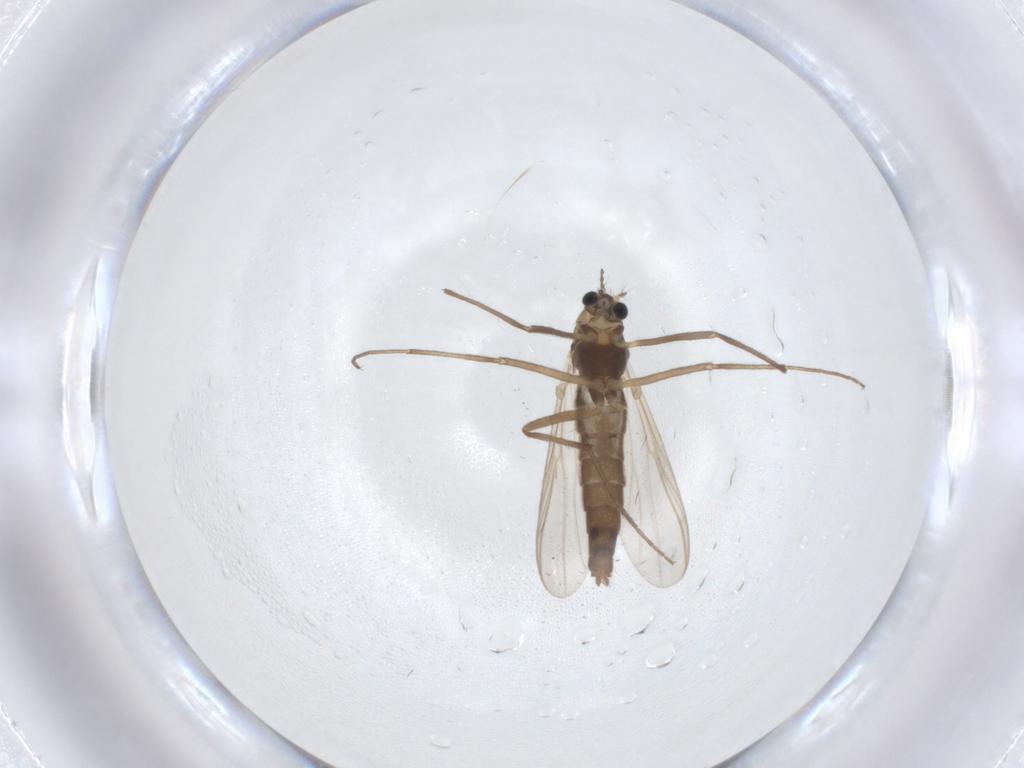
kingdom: Animalia
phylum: Arthropoda
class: Insecta
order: Diptera
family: Chironomidae
